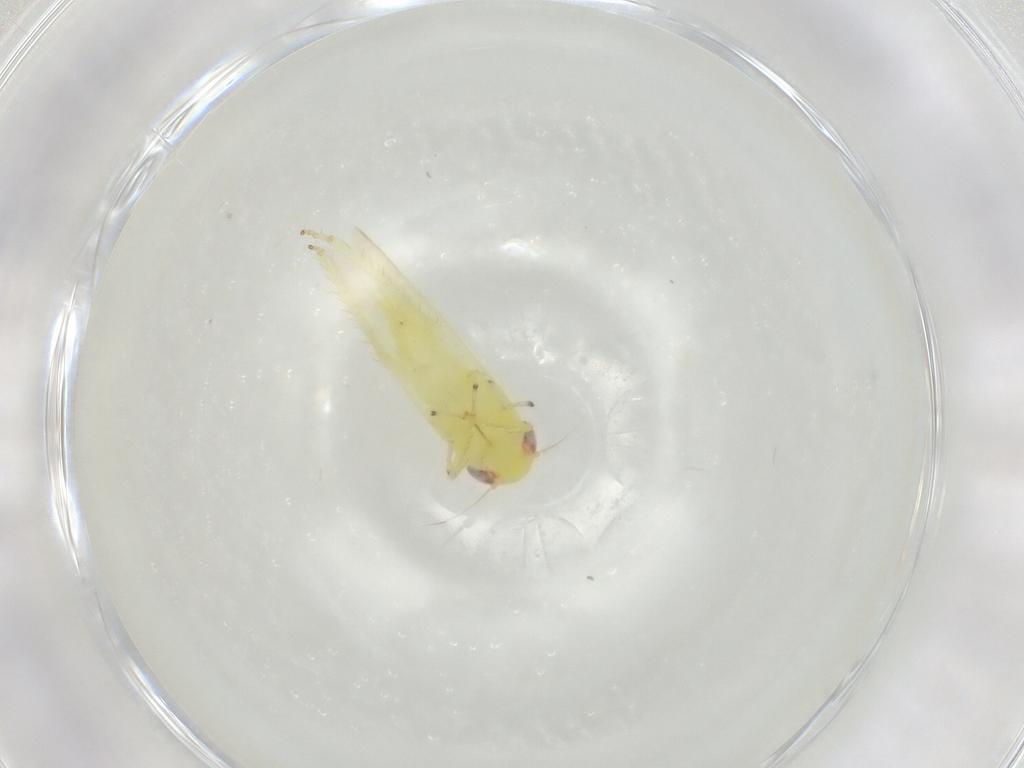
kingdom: Animalia
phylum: Arthropoda
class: Insecta
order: Hemiptera
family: Cicadellidae
